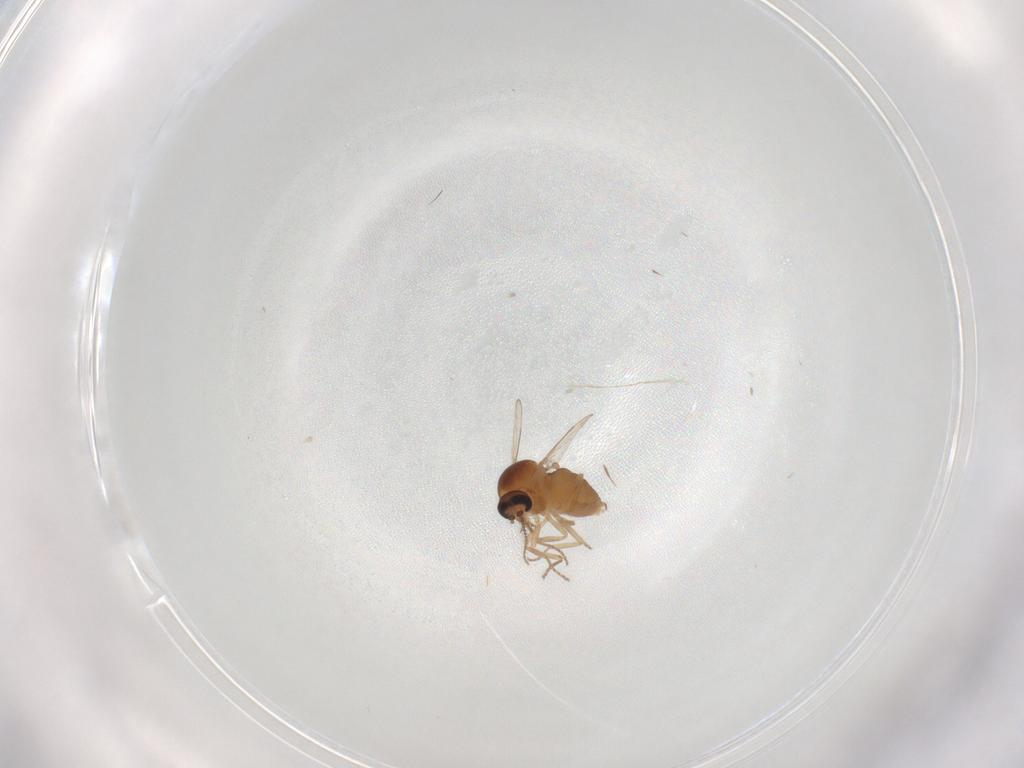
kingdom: Animalia
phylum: Arthropoda
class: Insecta
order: Diptera
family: Ceratopogonidae
